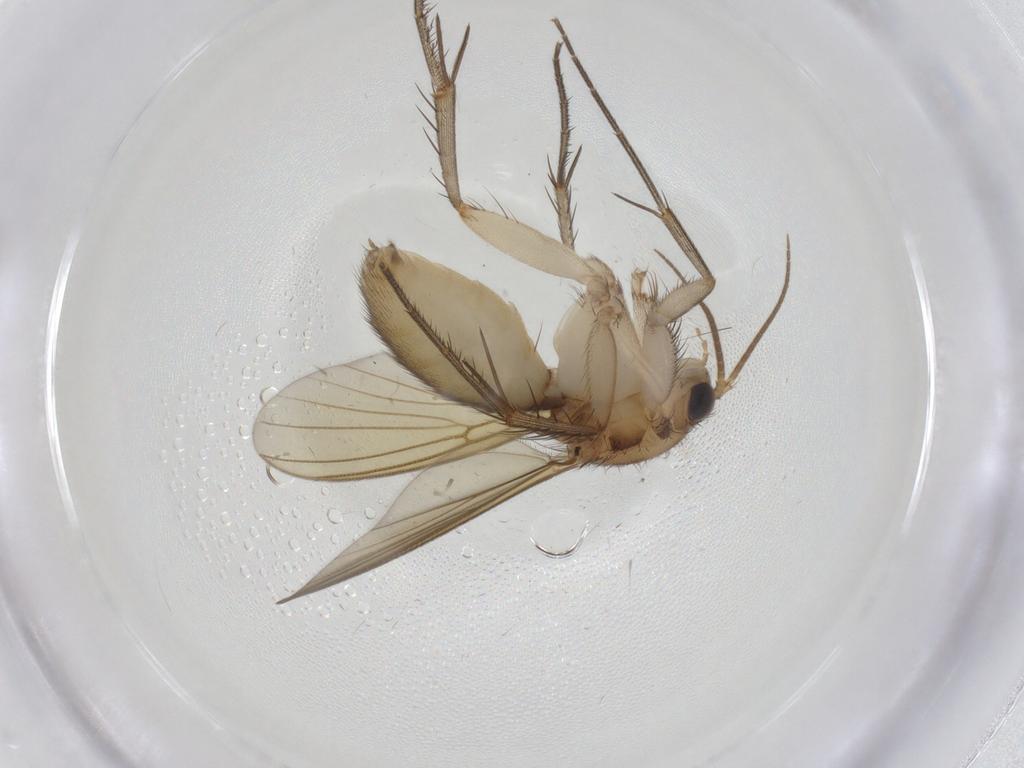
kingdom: Animalia
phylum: Arthropoda
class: Insecta
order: Diptera
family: Mycetophilidae
